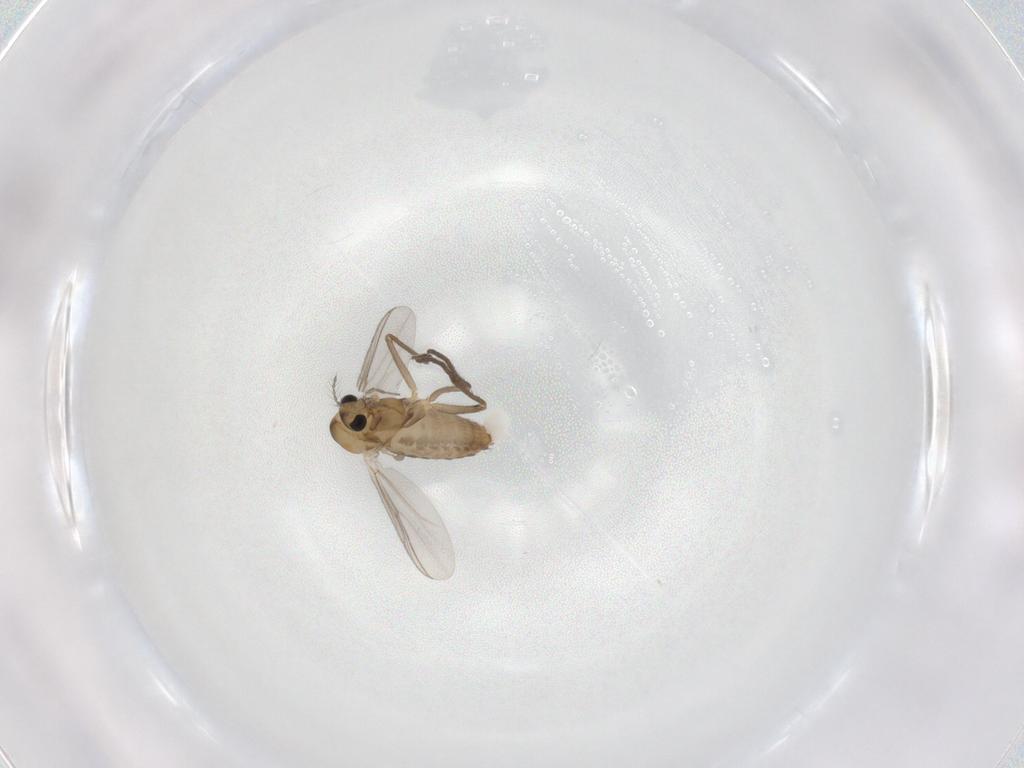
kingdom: Animalia
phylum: Arthropoda
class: Insecta
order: Diptera
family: Chironomidae
